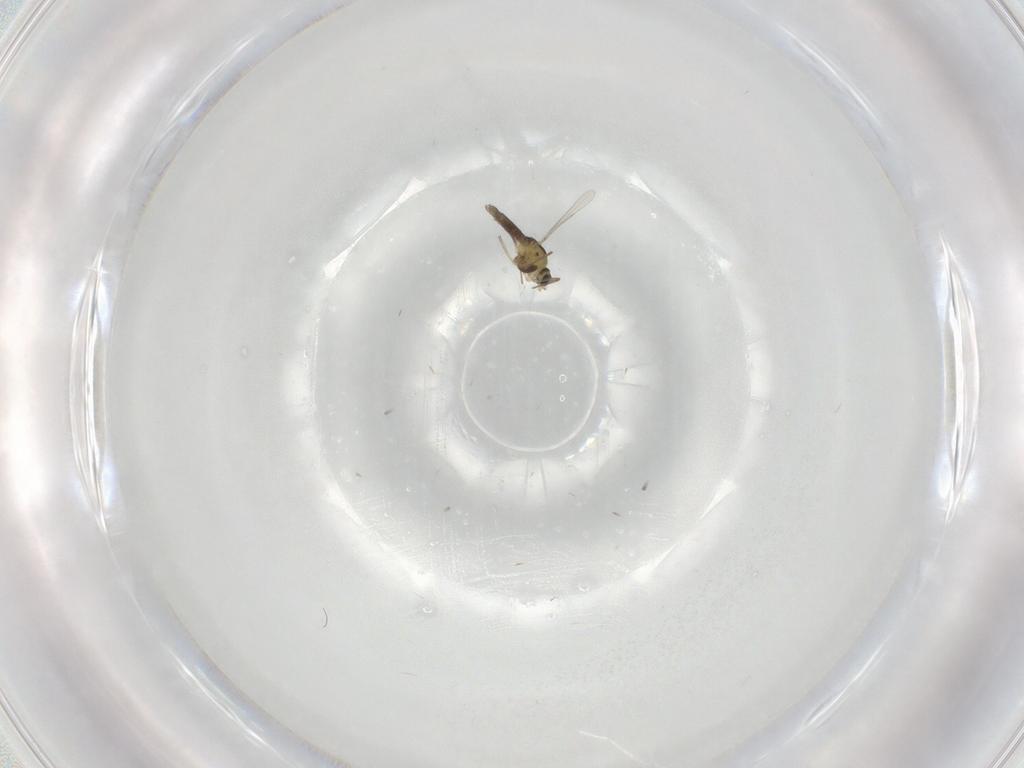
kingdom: Animalia
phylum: Arthropoda
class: Insecta
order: Diptera
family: Chironomidae
